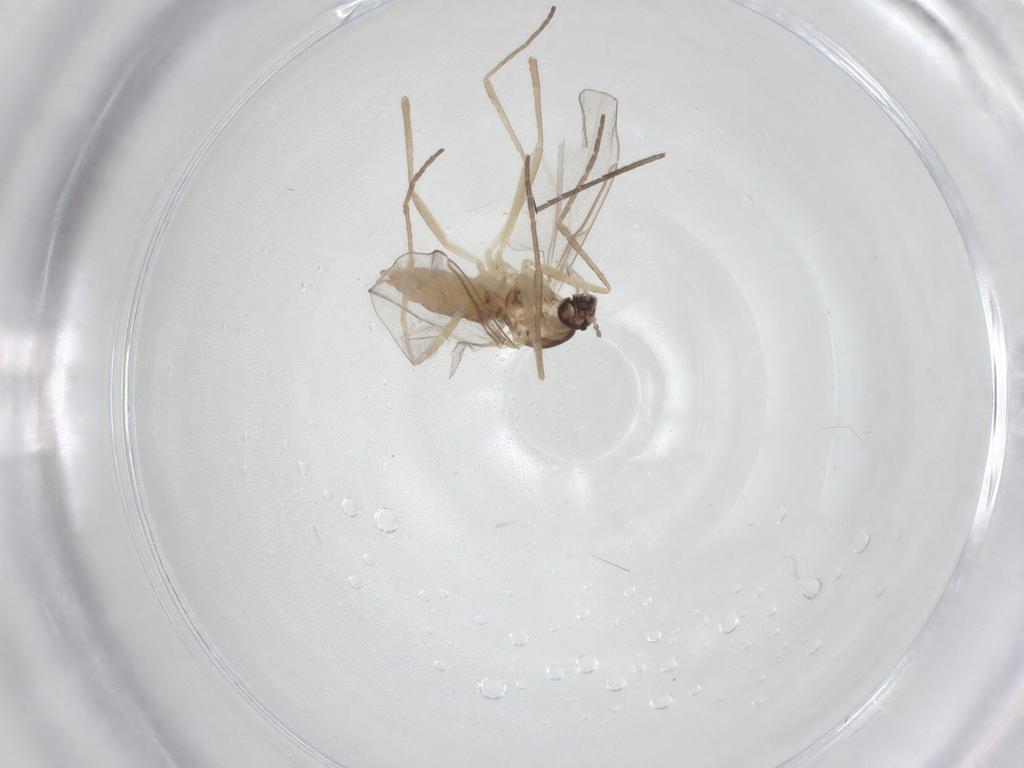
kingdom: Animalia
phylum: Arthropoda
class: Insecta
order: Diptera
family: Cecidomyiidae
